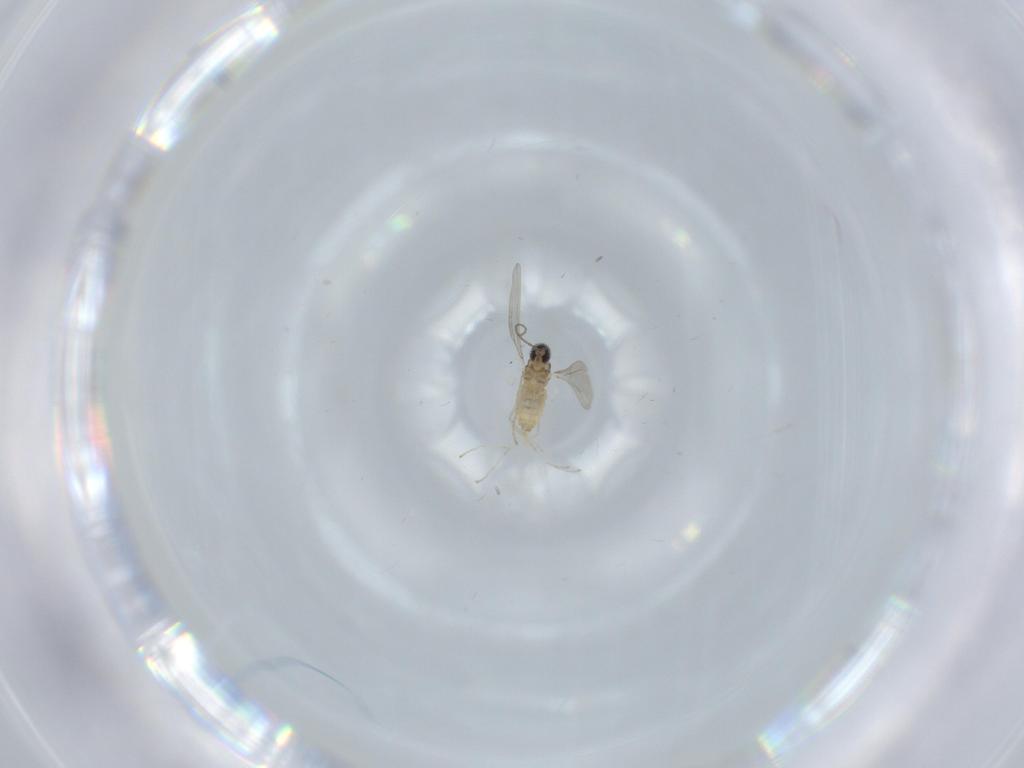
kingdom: Animalia
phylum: Arthropoda
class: Insecta
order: Diptera
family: Cecidomyiidae
